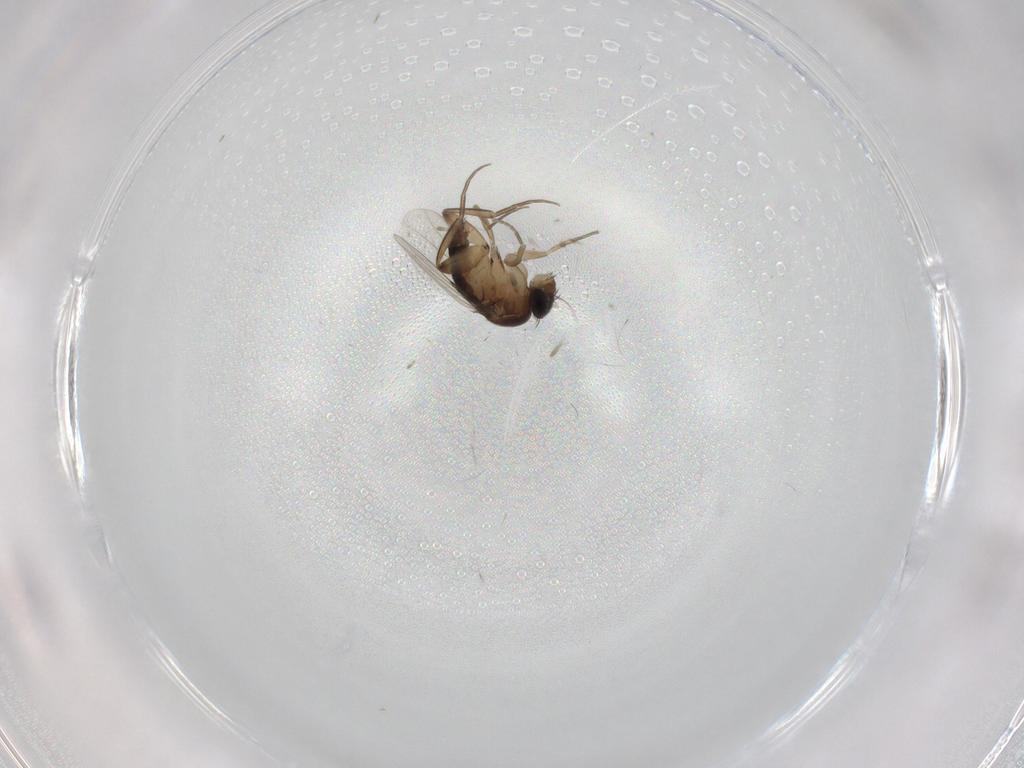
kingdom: Animalia
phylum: Arthropoda
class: Insecta
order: Diptera
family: Phoridae
